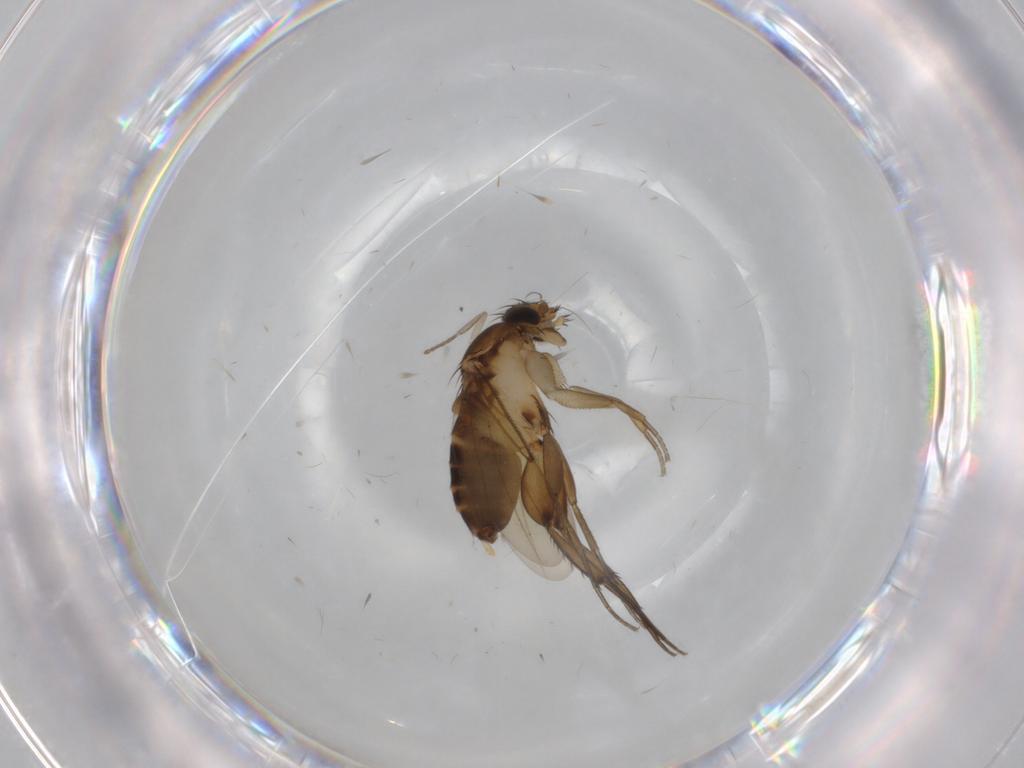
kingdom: Animalia
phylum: Arthropoda
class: Insecta
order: Diptera
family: Phoridae
